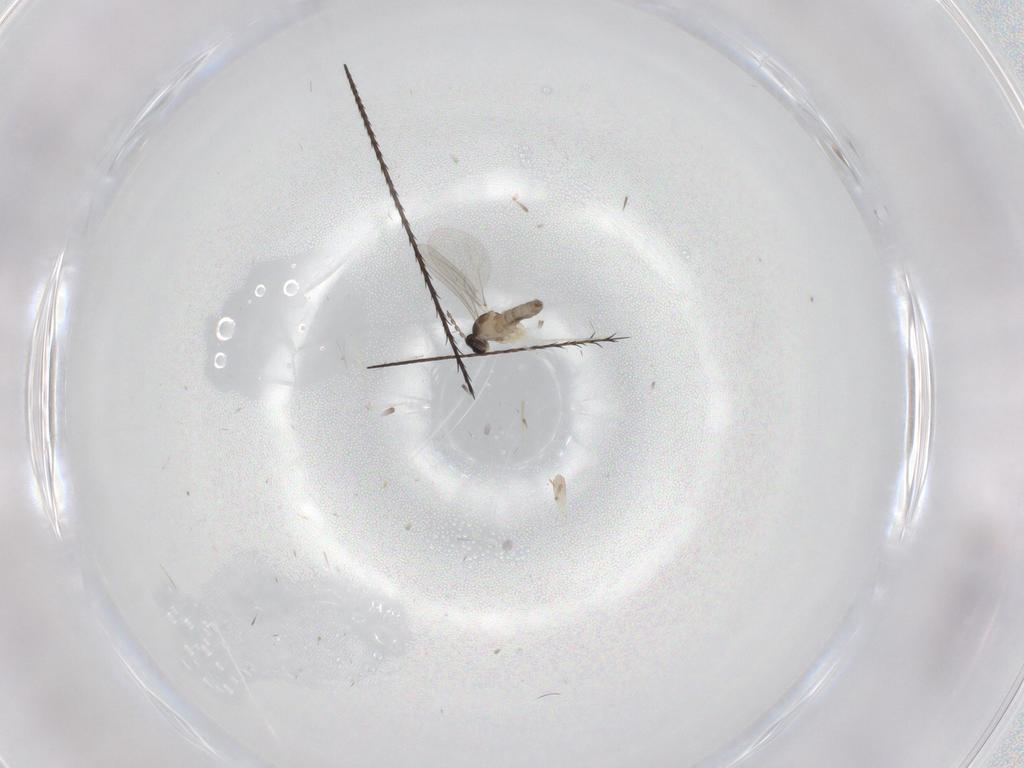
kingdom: Animalia
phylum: Arthropoda
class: Insecta
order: Diptera
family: Cecidomyiidae
